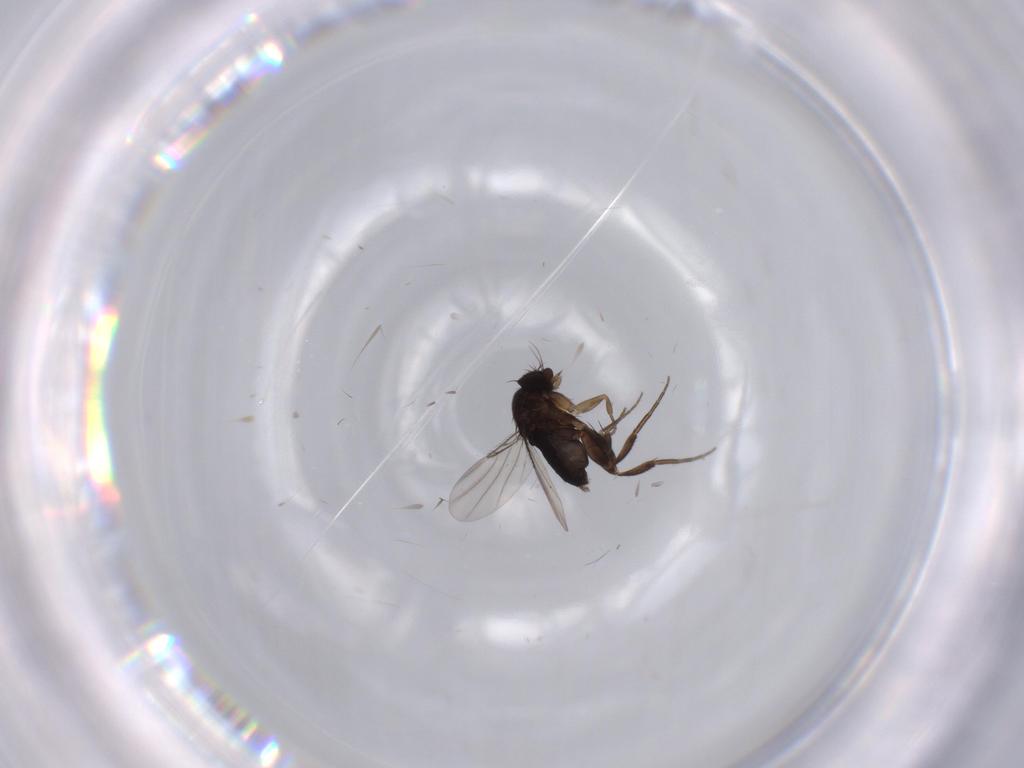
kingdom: Animalia
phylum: Arthropoda
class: Insecta
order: Diptera
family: Phoridae
